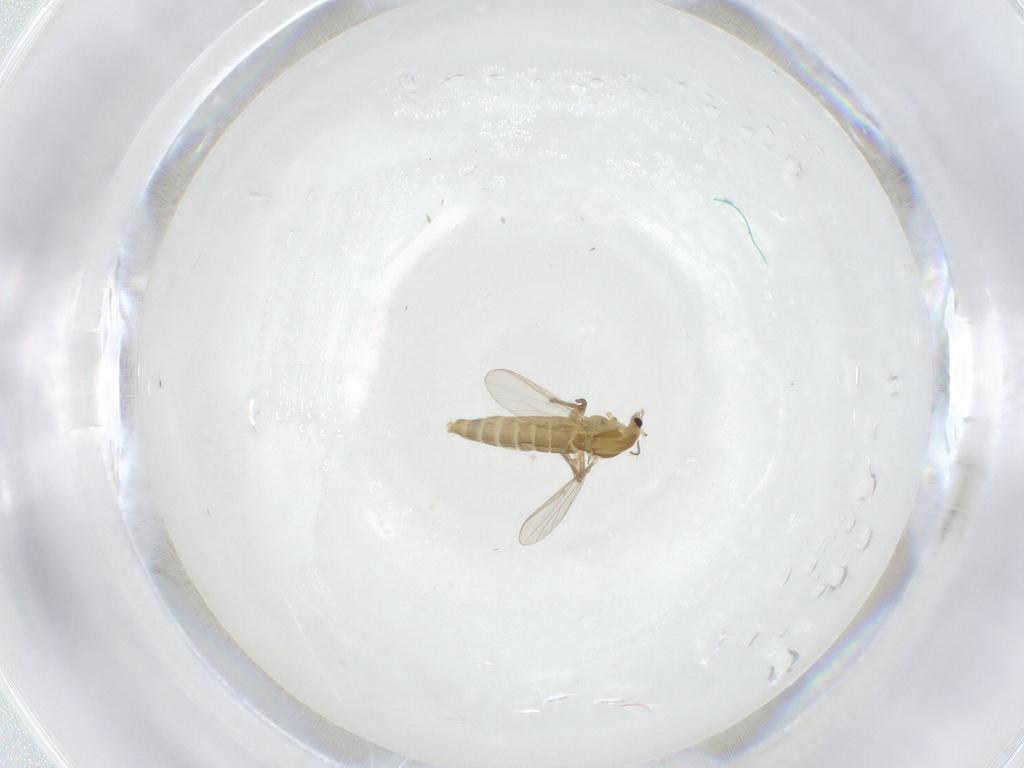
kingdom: Animalia
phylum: Arthropoda
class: Insecta
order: Diptera
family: Chironomidae
